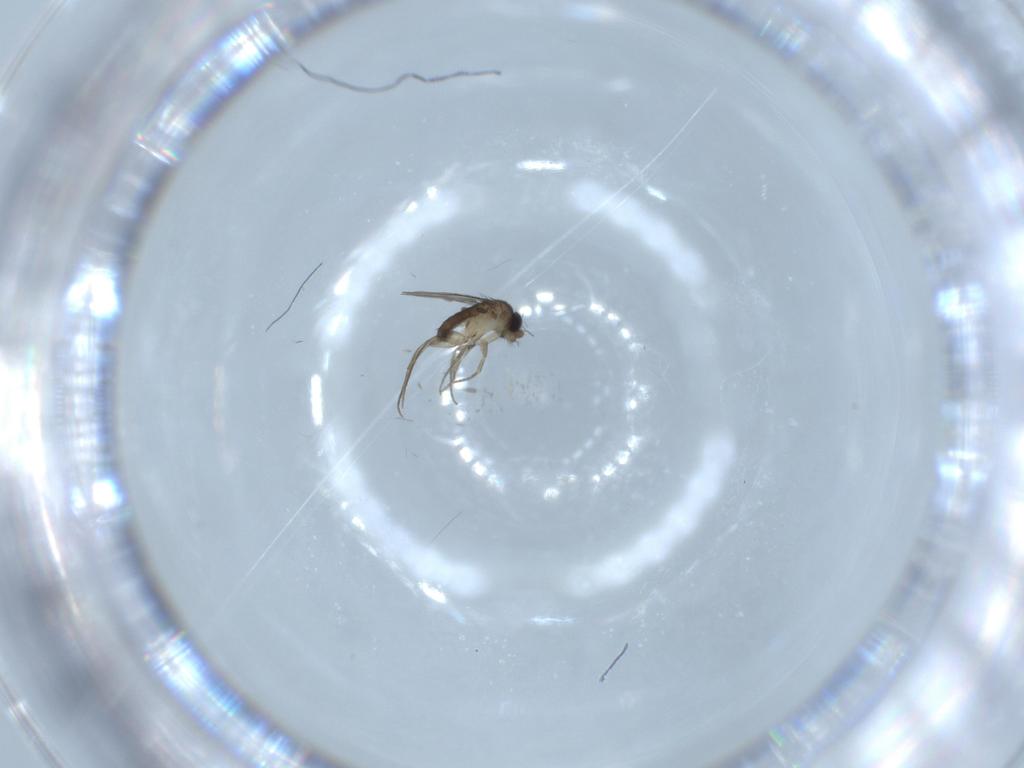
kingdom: Animalia
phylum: Arthropoda
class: Insecta
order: Diptera
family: Phoridae
